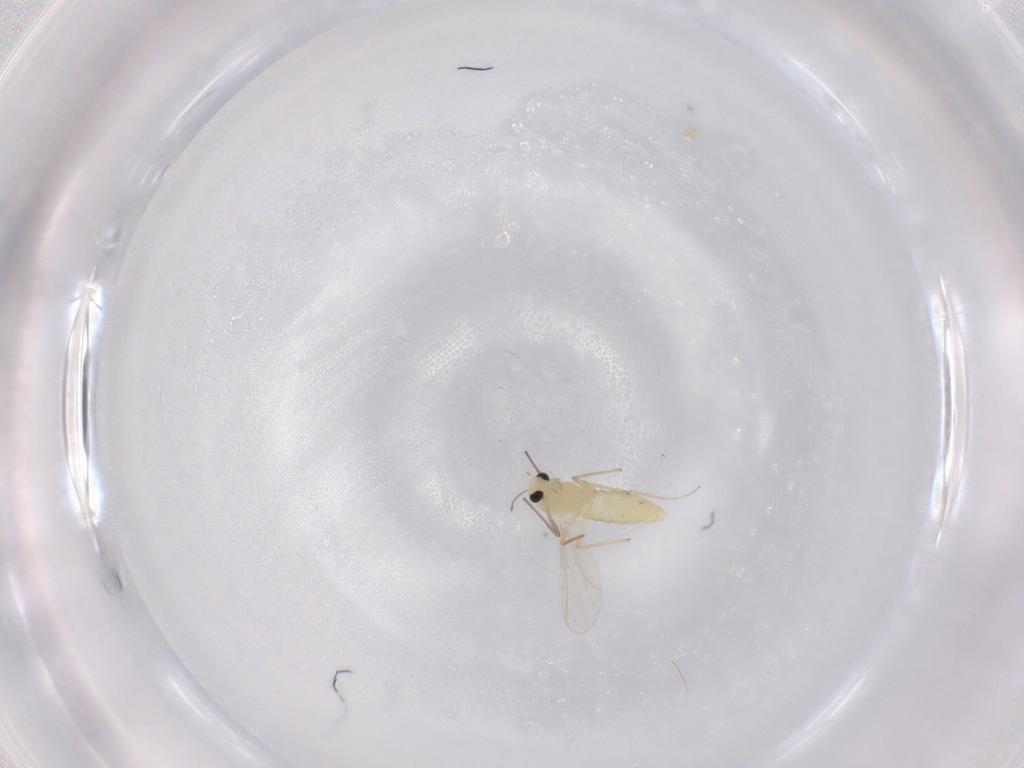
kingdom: Animalia
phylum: Arthropoda
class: Insecta
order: Diptera
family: Chironomidae
